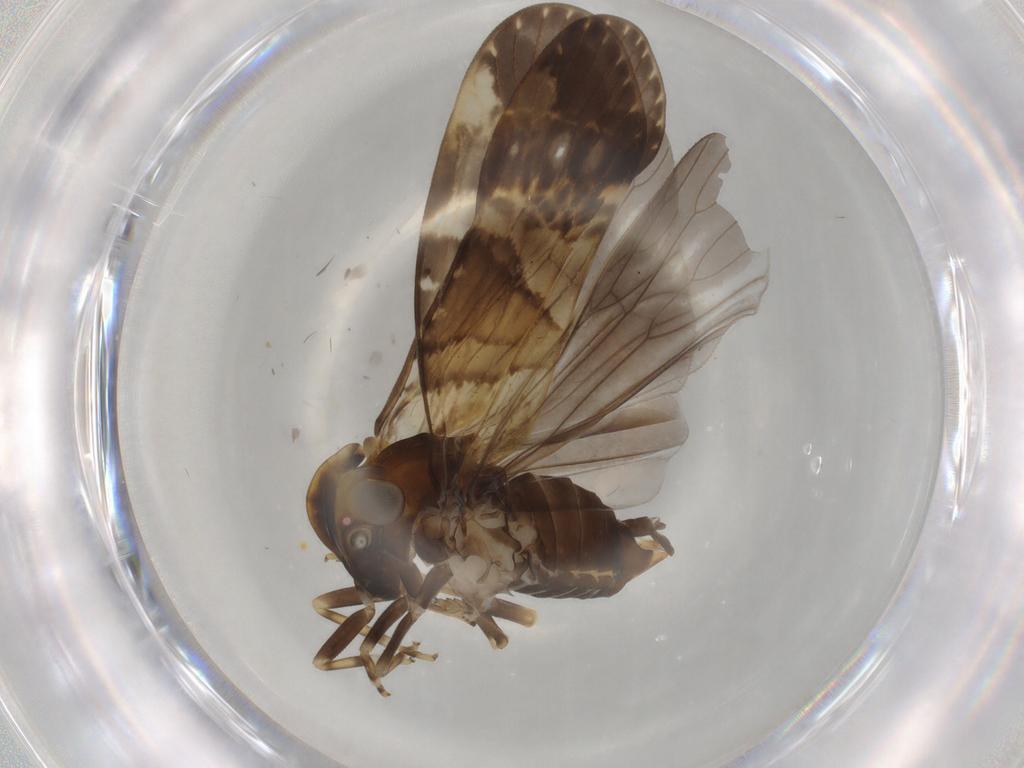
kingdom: Animalia
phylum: Arthropoda
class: Insecta
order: Hemiptera
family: Cixiidae
